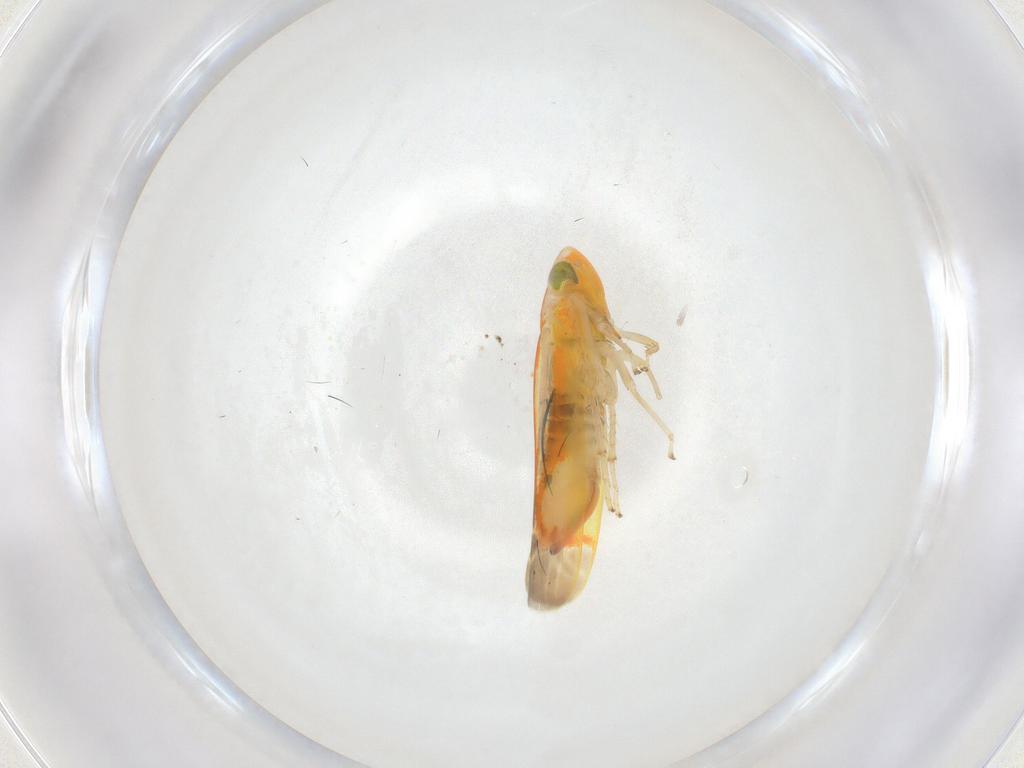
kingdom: Animalia
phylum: Arthropoda
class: Insecta
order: Hemiptera
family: Cicadellidae
